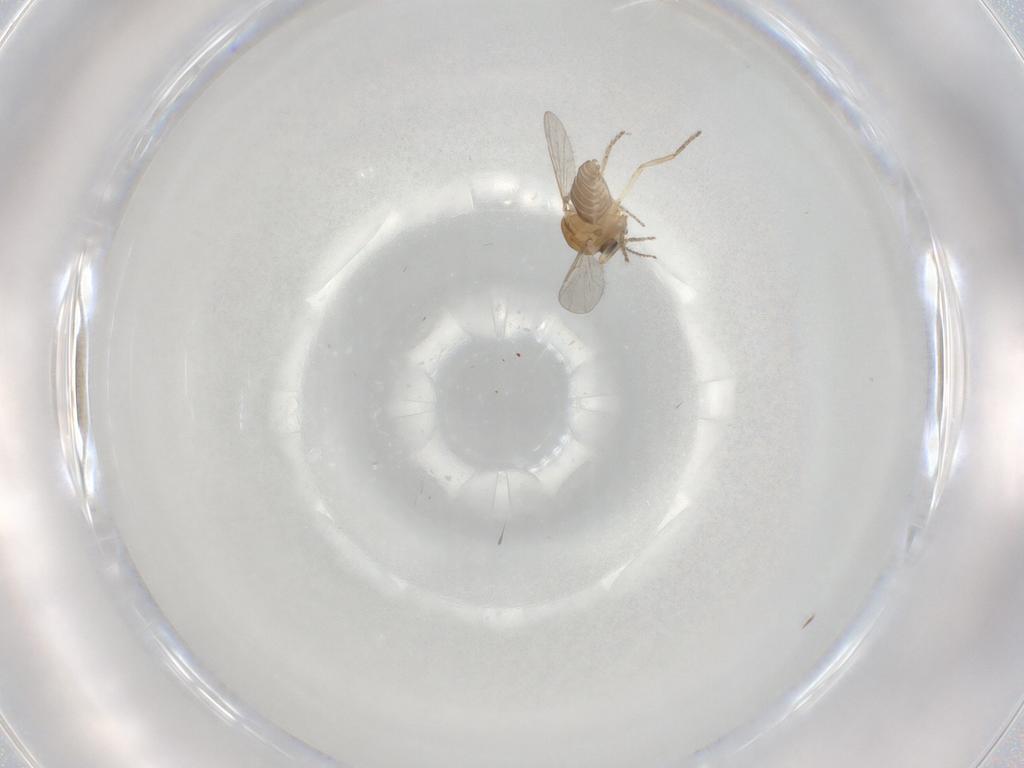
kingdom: Animalia
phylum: Arthropoda
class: Insecta
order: Diptera
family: Ceratopogonidae
